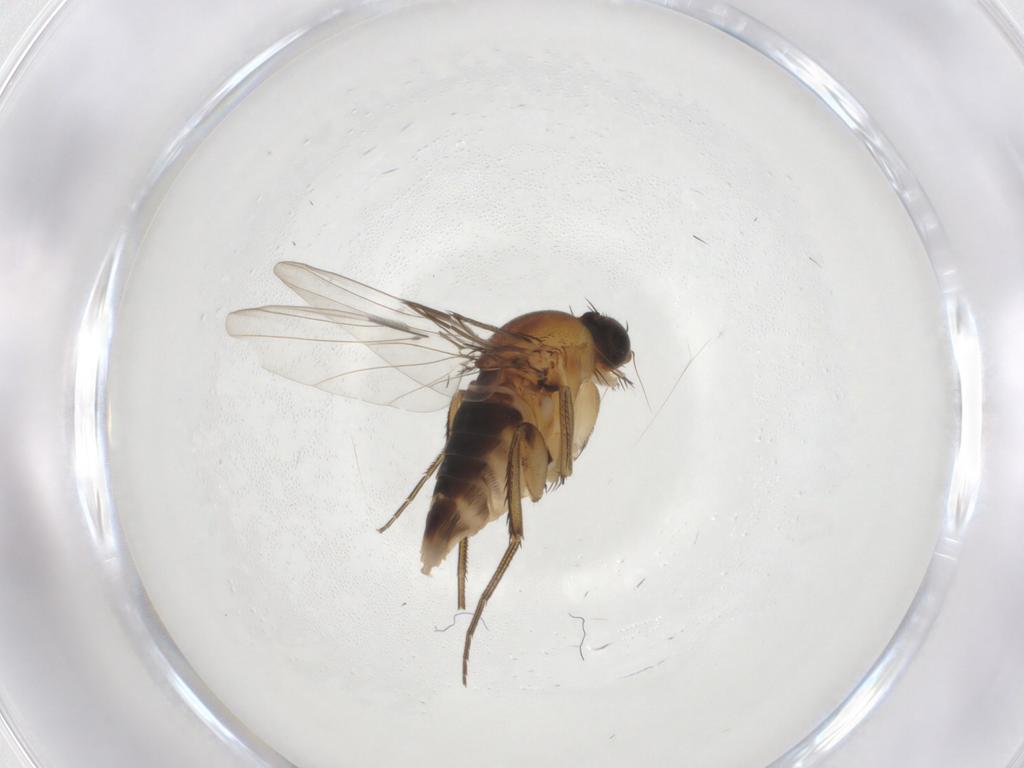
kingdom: Animalia
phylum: Arthropoda
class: Insecta
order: Diptera
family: Phoridae
